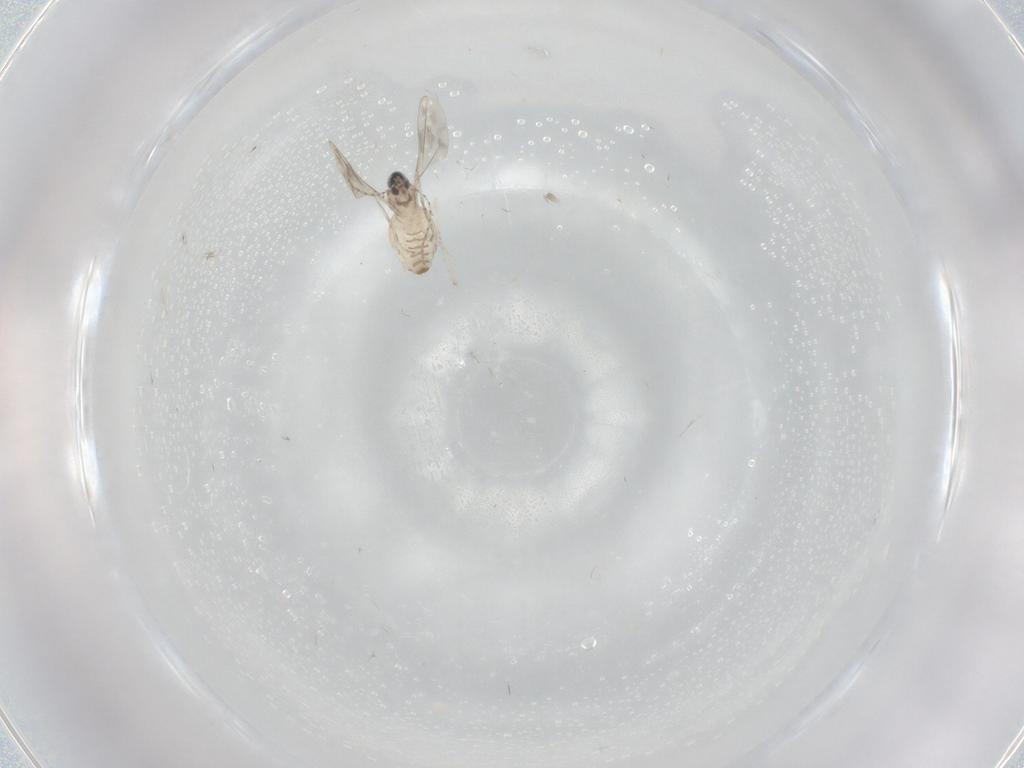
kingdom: Animalia
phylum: Arthropoda
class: Insecta
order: Diptera
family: Cecidomyiidae
